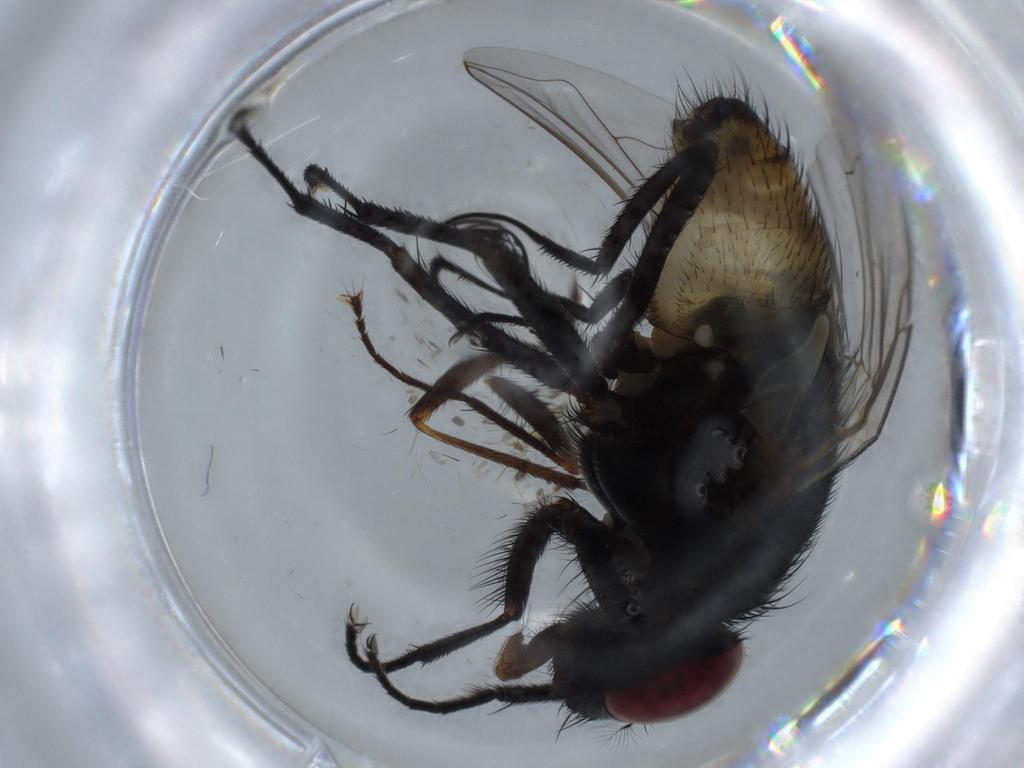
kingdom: Animalia
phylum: Arthropoda
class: Insecta
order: Diptera
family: Muscidae
